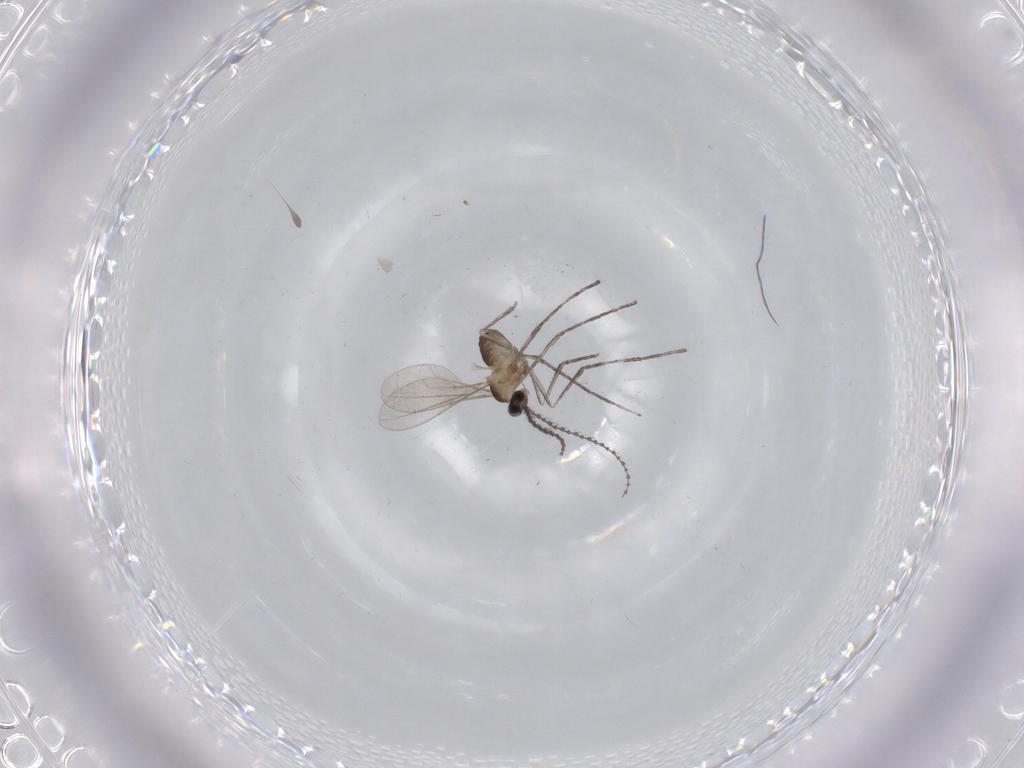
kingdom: Animalia
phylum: Arthropoda
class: Insecta
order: Diptera
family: Cecidomyiidae
